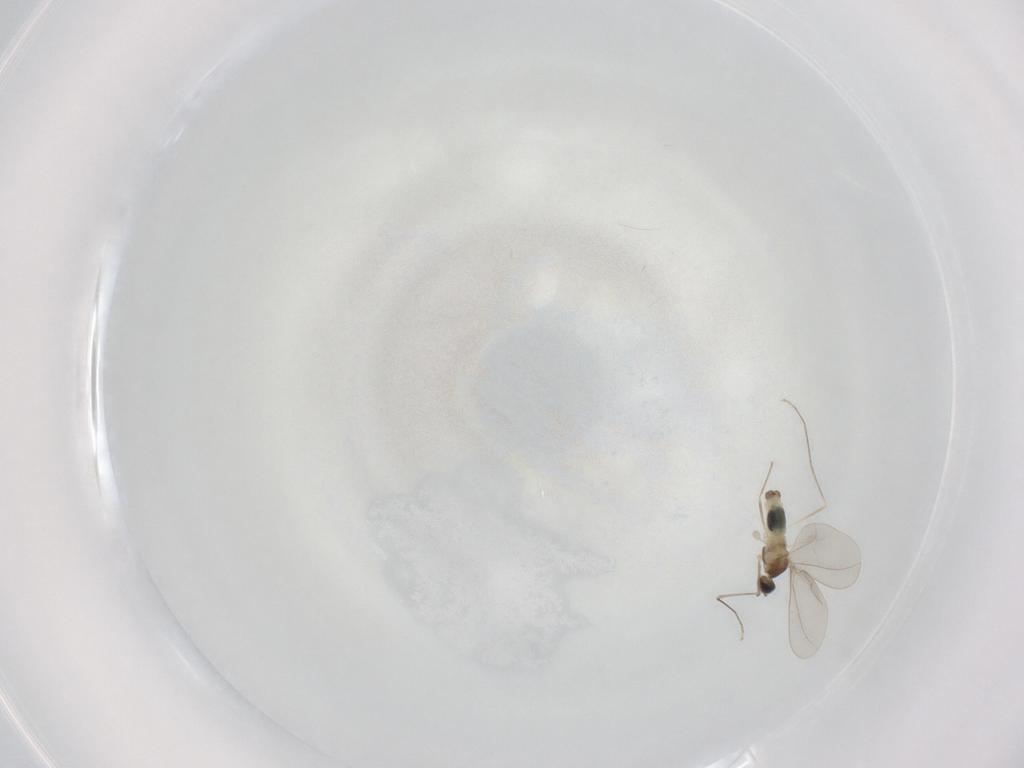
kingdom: Animalia
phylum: Arthropoda
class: Insecta
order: Diptera
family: Cecidomyiidae
